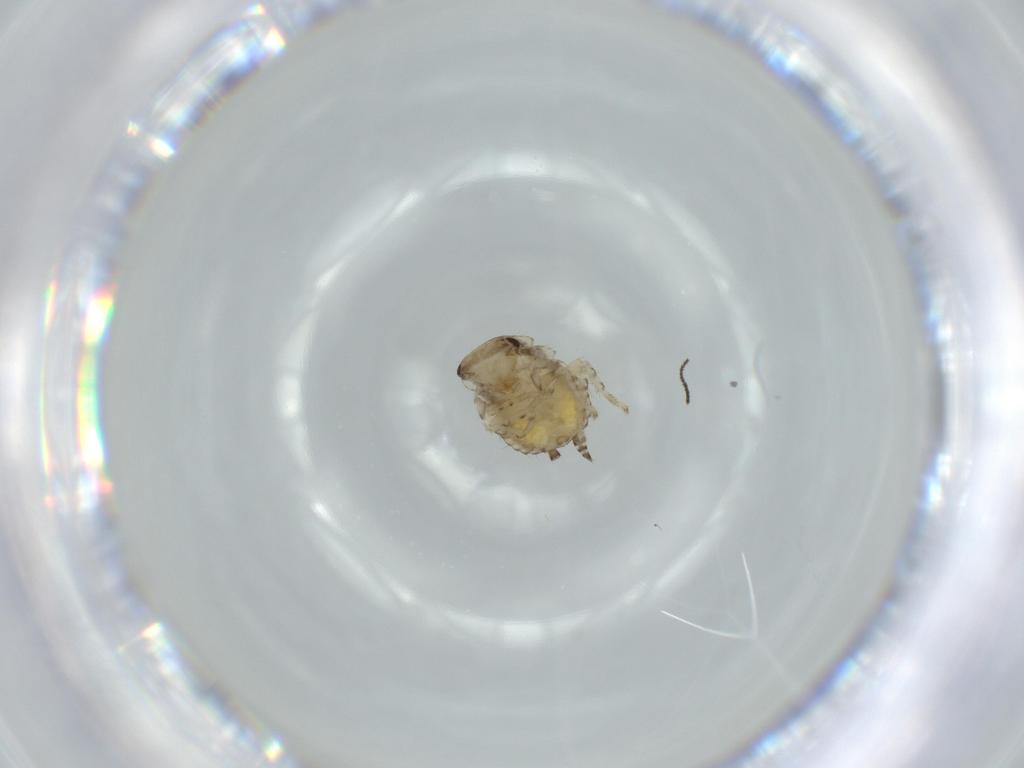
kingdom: Animalia
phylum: Arthropoda
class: Insecta
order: Blattodea
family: Ectobiidae
